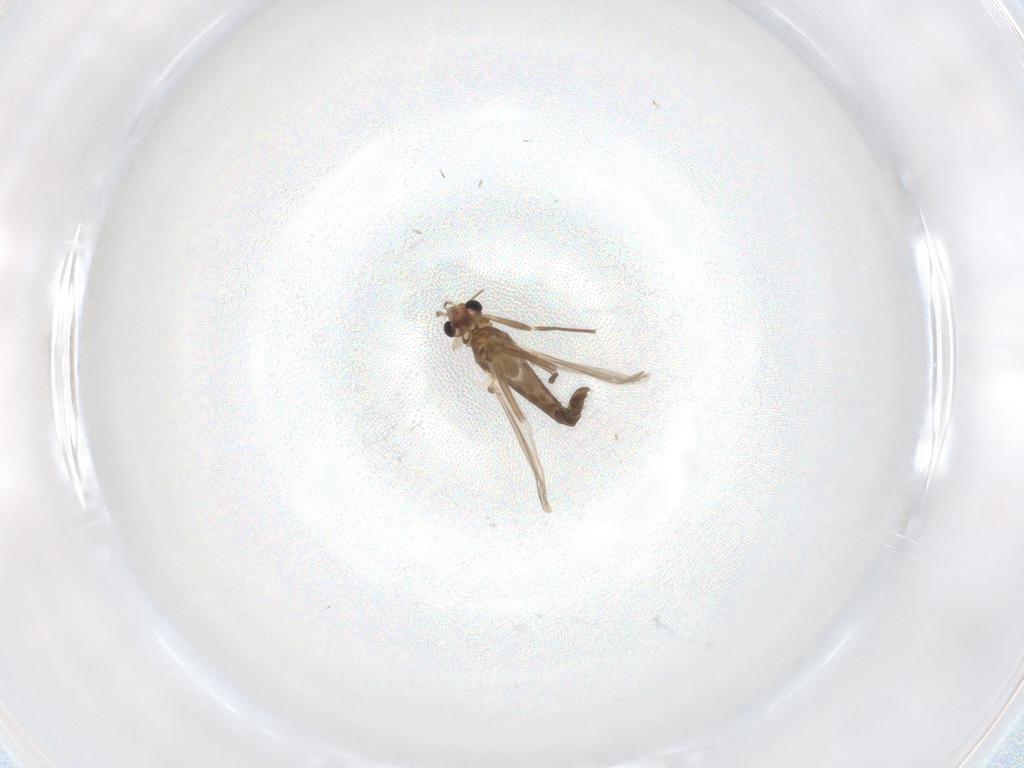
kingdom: Animalia
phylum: Arthropoda
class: Insecta
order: Diptera
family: Chironomidae
